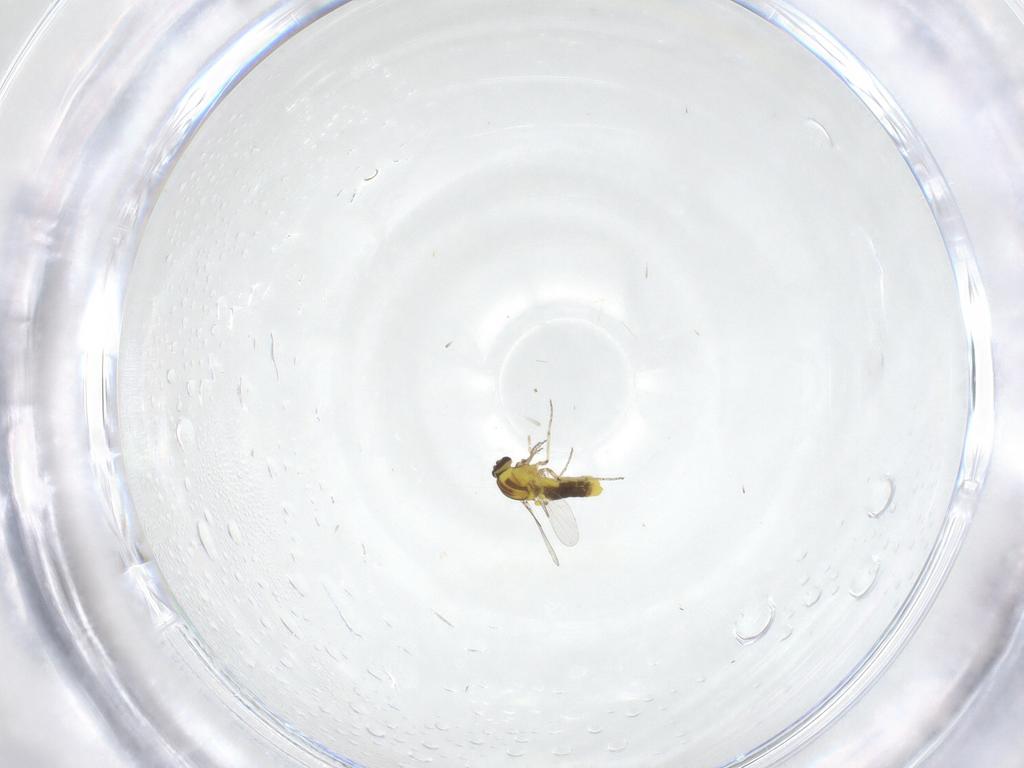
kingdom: Animalia
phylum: Arthropoda
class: Insecta
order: Diptera
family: Ceratopogonidae
